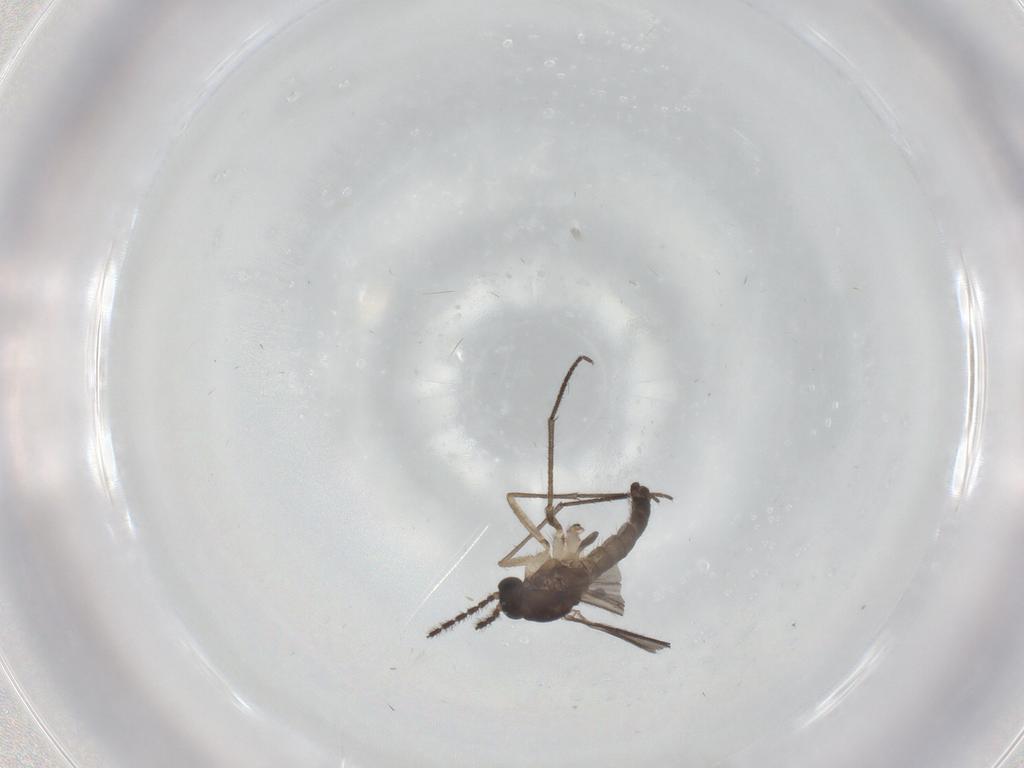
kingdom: Animalia
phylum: Arthropoda
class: Insecta
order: Diptera
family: Sciaridae
